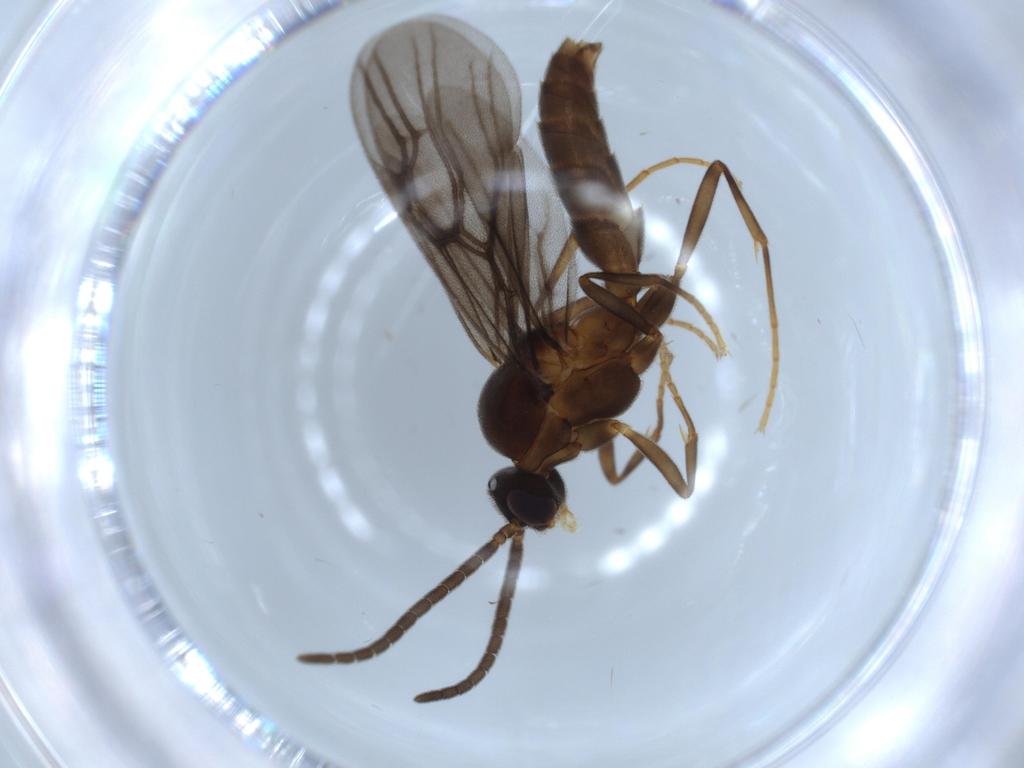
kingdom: Animalia
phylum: Arthropoda
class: Insecta
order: Hymenoptera
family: Formicidae
